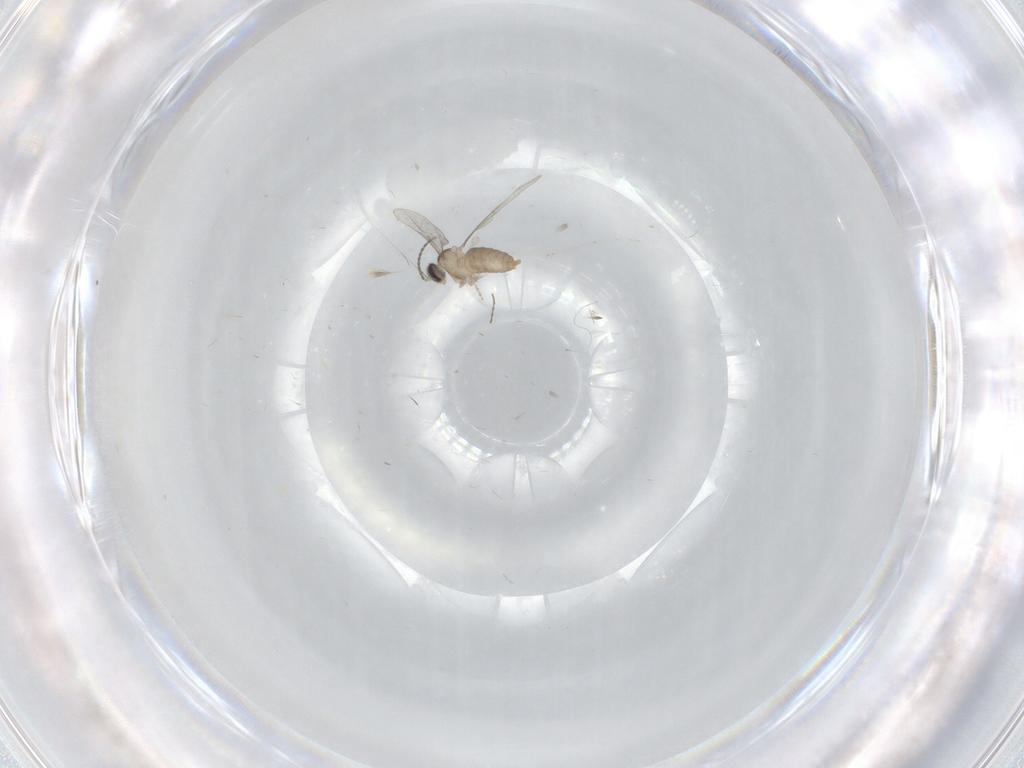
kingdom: Animalia
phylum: Arthropoda
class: Insecta
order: Diptera
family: Cecidomyiidae
